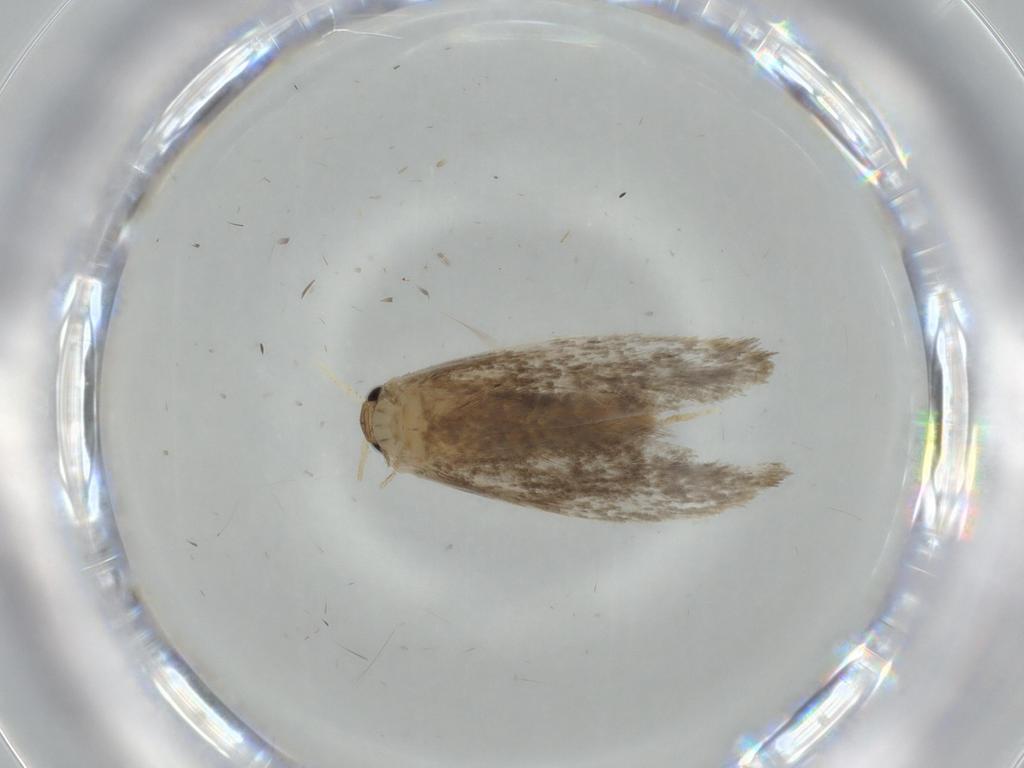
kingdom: Animalia
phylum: Arthropoda
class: Insecta
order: Lepidoptera
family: Tineidae
